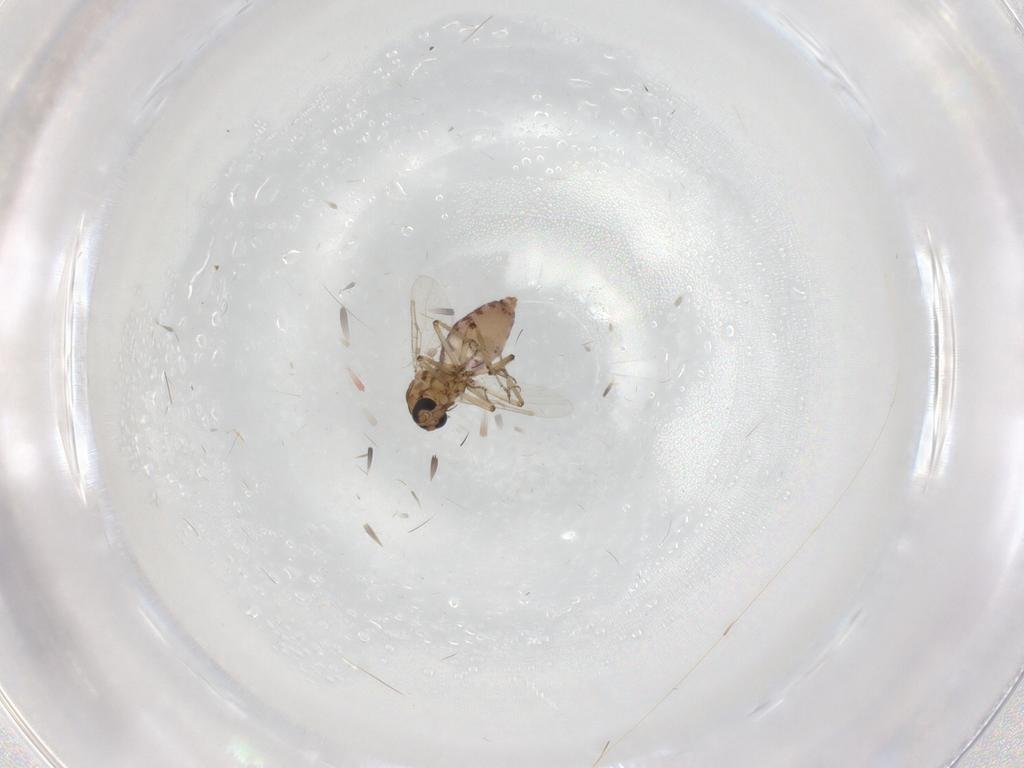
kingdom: Animalia
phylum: Arthropoda
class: Insecta
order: Diptera
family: Ceratopogonidae
